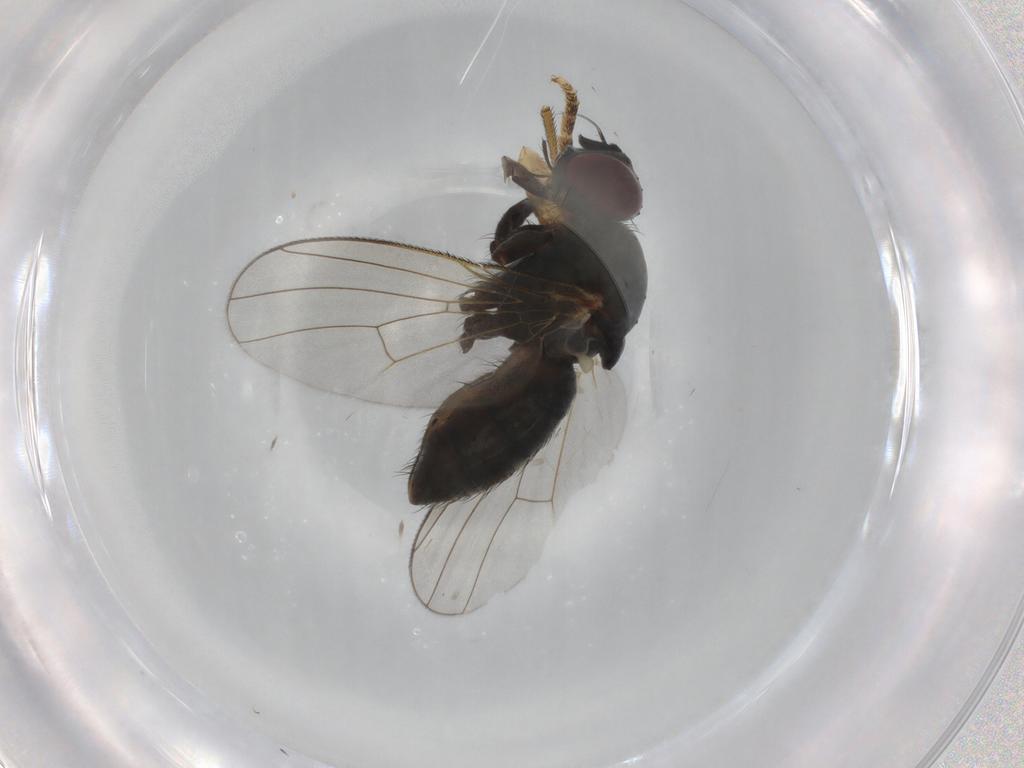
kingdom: Animalia
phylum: Arthropoda
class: Insecta
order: Diptera
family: Muscidae
